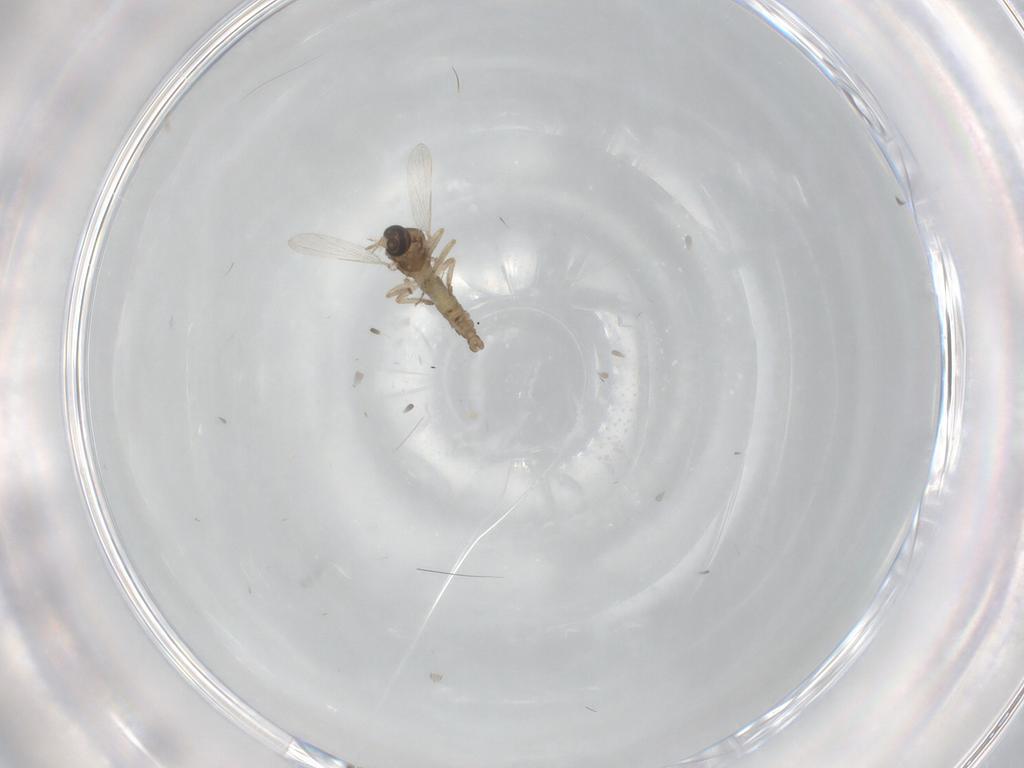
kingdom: Animalia
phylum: Arthropoda
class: Insecta
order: Diptera
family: Ceratopogonidae
